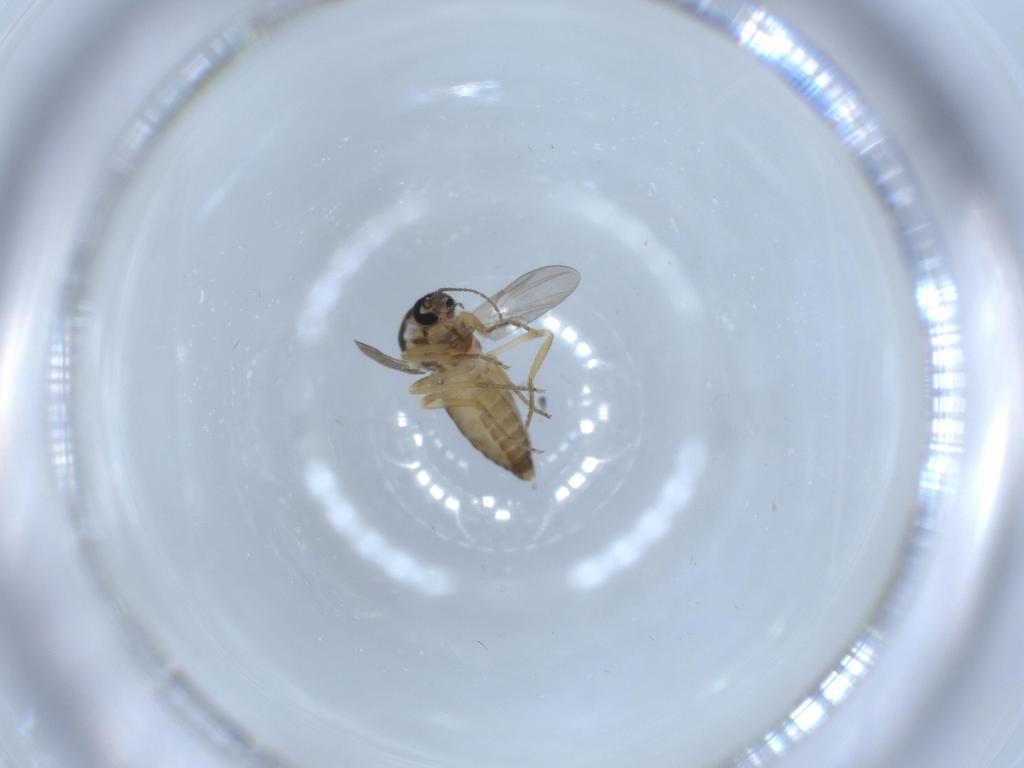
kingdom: Animalia
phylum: Arthropoda
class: Insecta
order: Diptera
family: Ceratopogonidae
